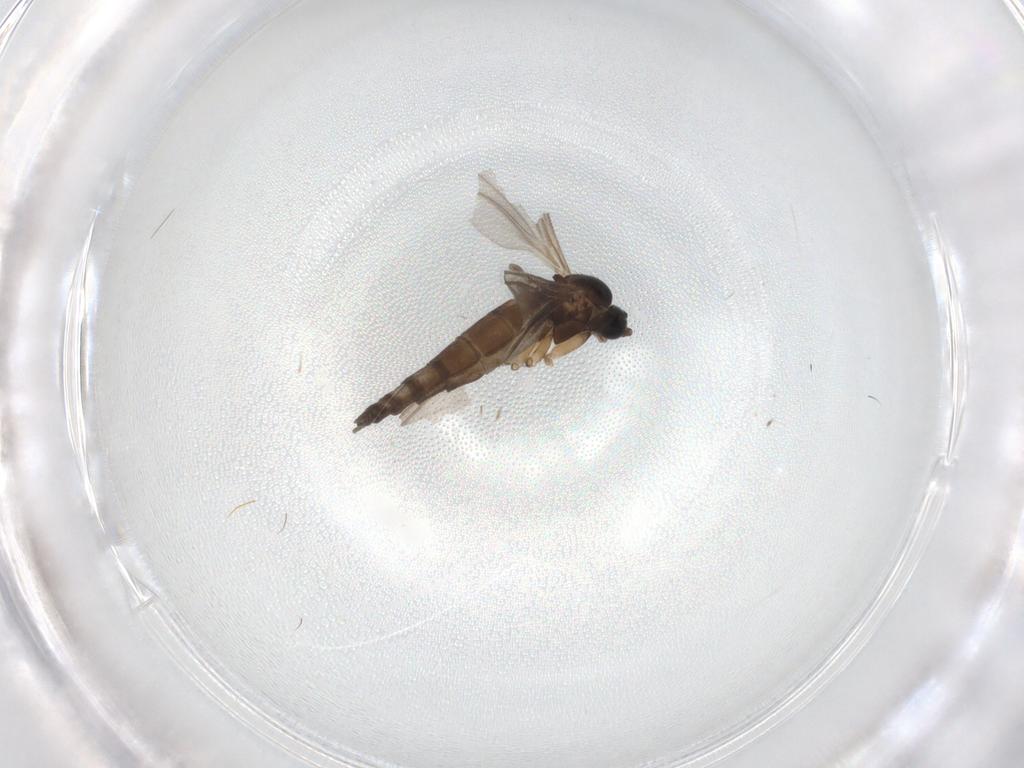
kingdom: Animalia
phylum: Arthropoda
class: Insecta
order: Diptera
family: Sciaridae
